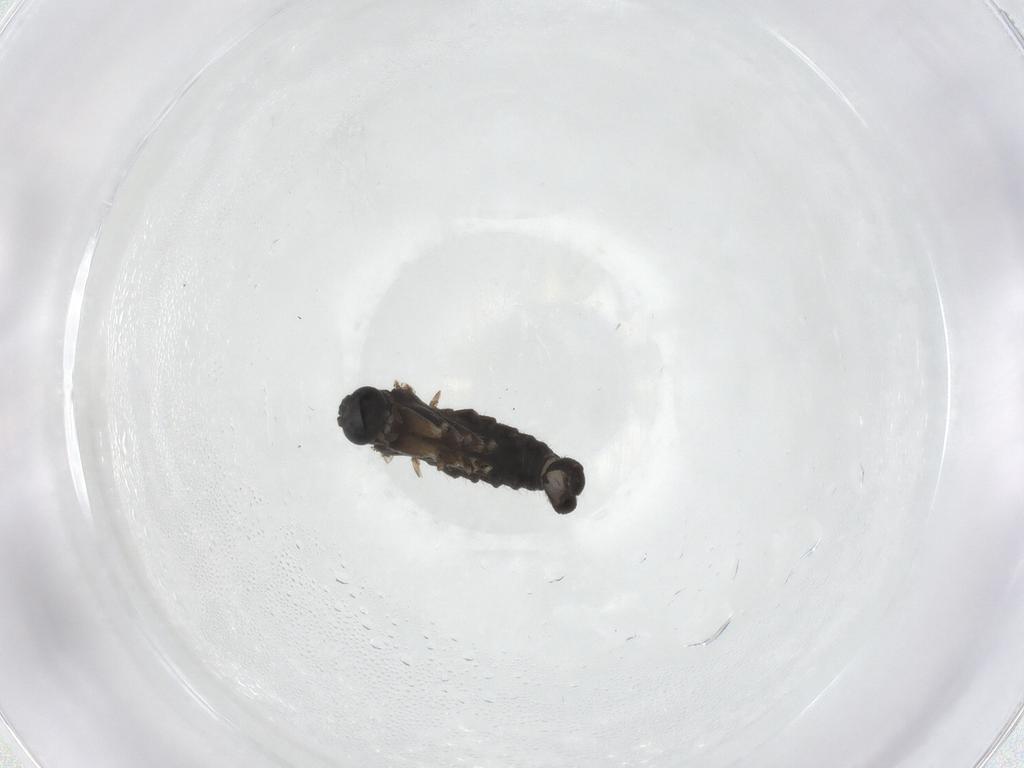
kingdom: Animalia
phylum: Arthropoda
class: Insecta
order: Diptera
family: Sciaridae
